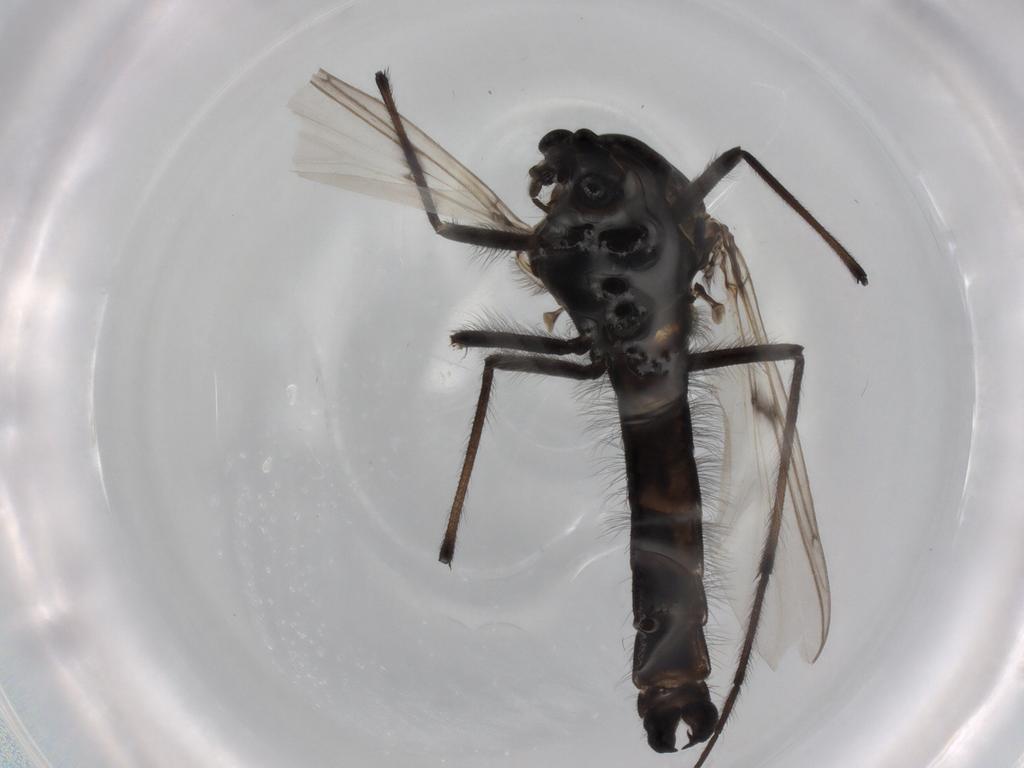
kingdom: Animalia
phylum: Arthropoda
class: Insecta
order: Diptera
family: Chironomidae
